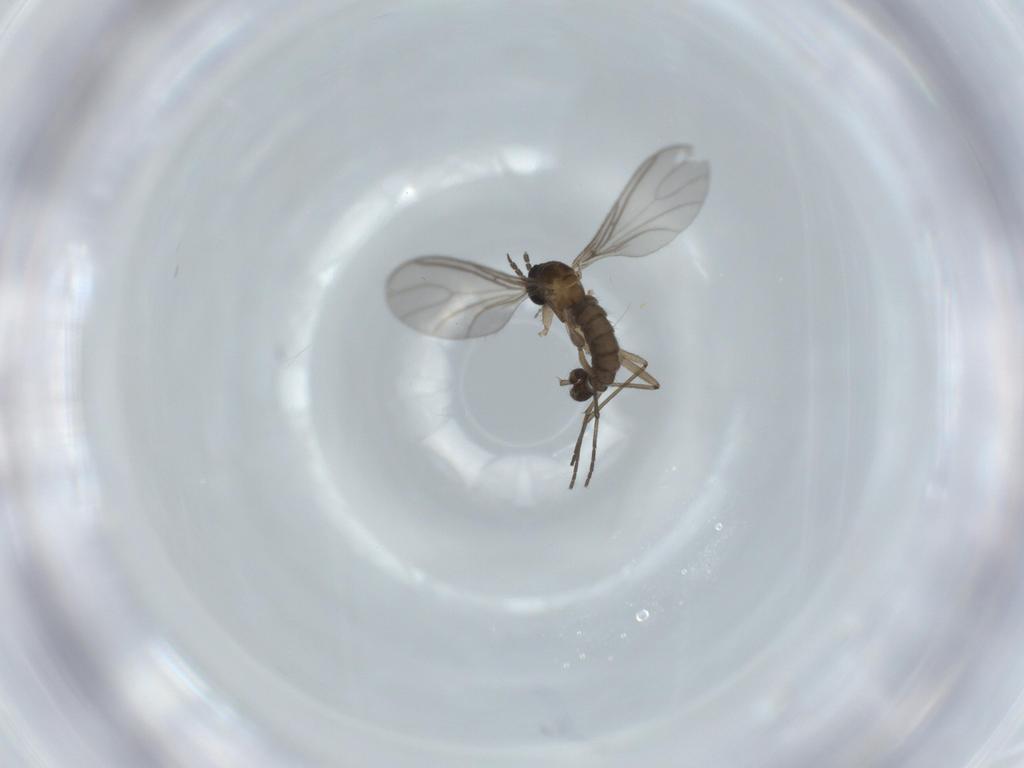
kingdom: Animalia
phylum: Arthropoda
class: Insecta
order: Diptera
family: Sciaridae
